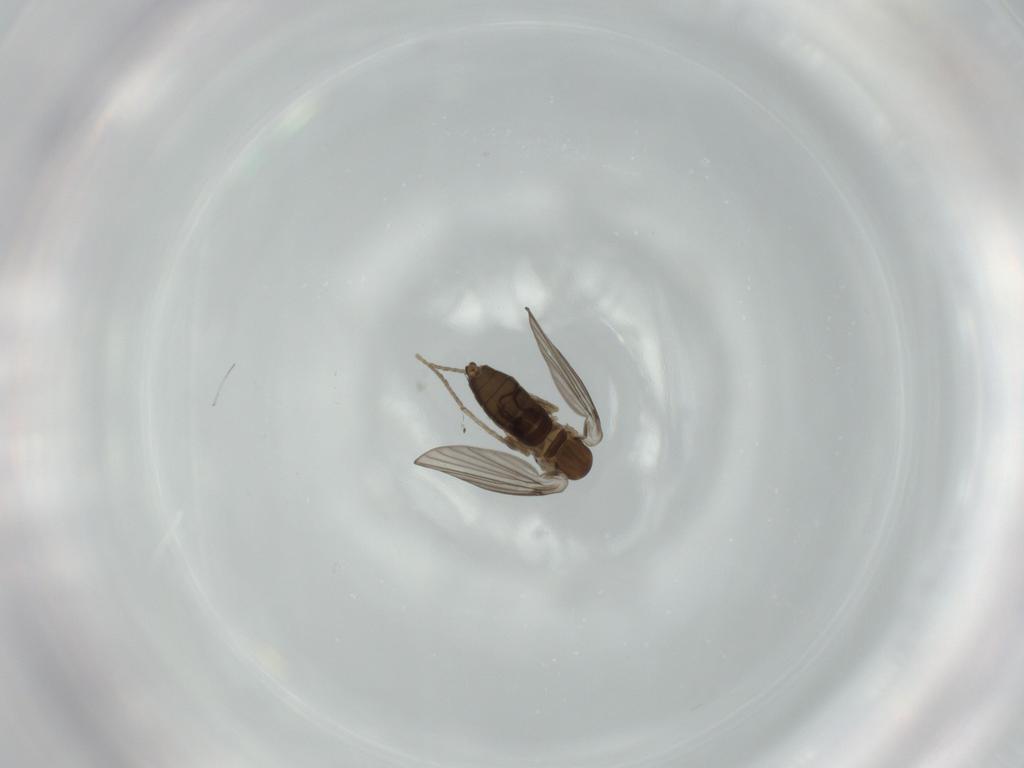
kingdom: Animalia
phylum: Arthropoda
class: Insecta
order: Diptera
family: Psychodidae
